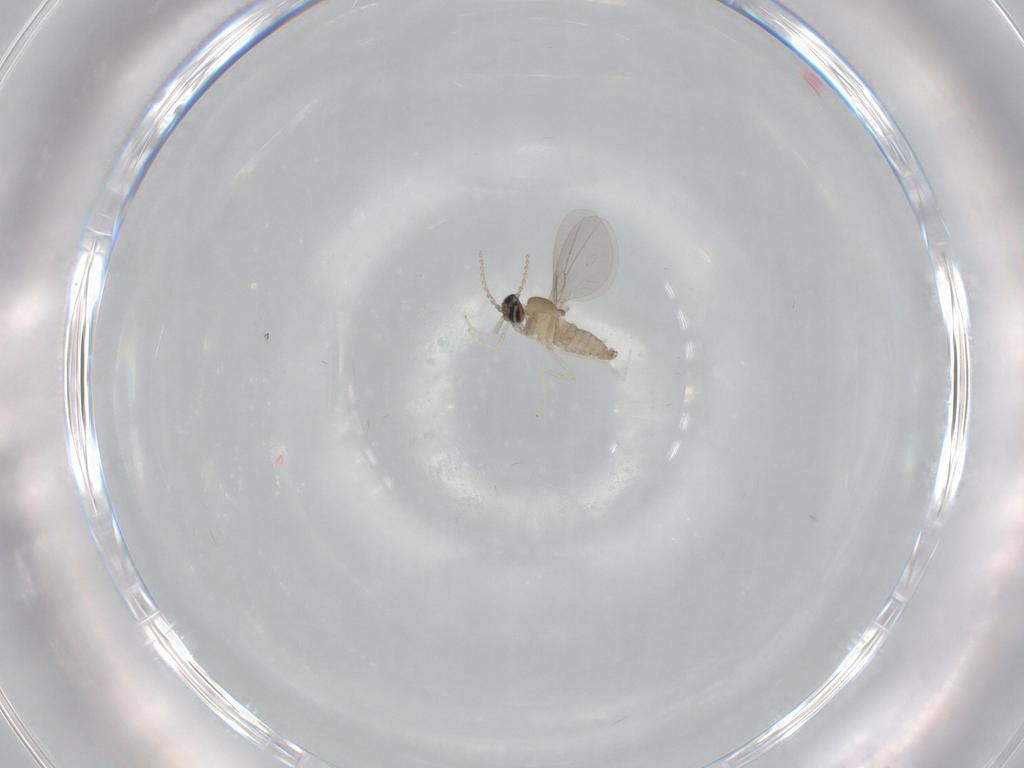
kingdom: Animalia
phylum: Arthropoda
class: Insecta
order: Diptera
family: Cecidomyiidae
